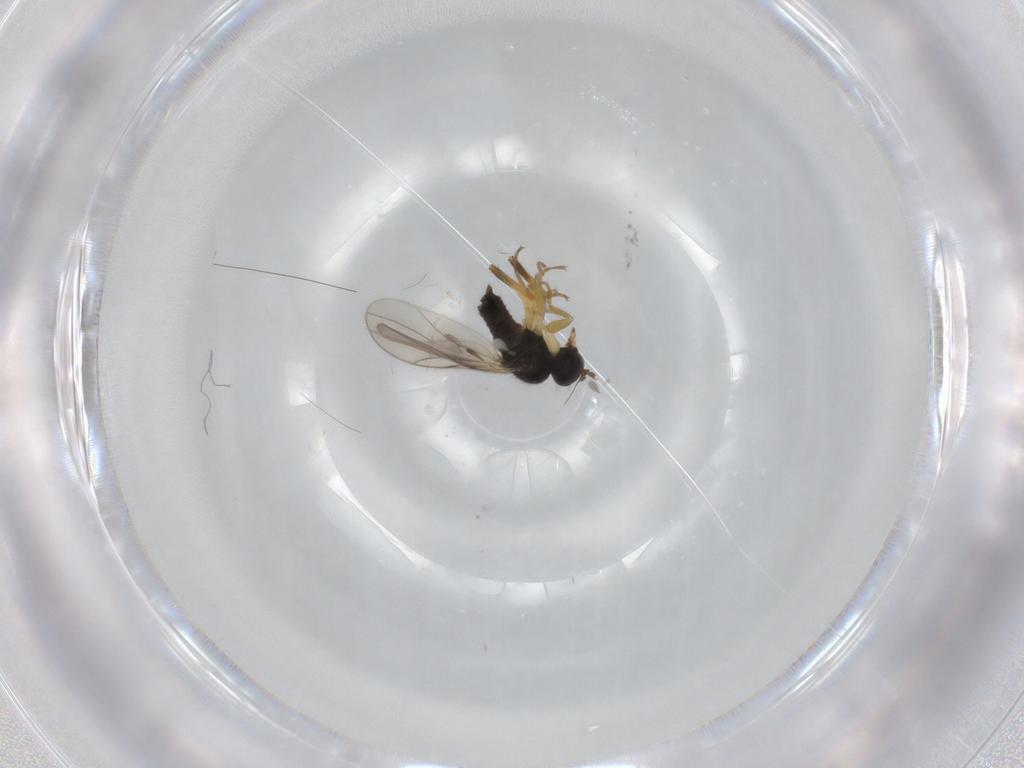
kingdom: Animalia
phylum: Arthropoda
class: Insecta
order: Diptera
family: Hybotidae
